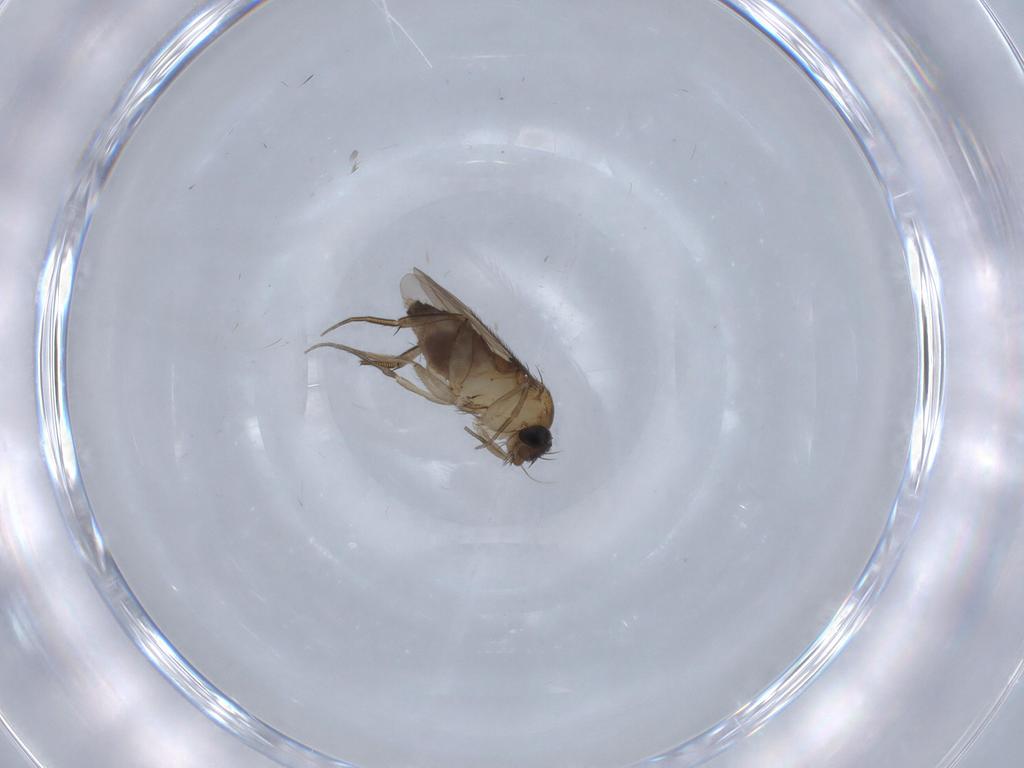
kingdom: Animalia
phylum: Arthropoda
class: Insecta
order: Diptera
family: Phoridae
